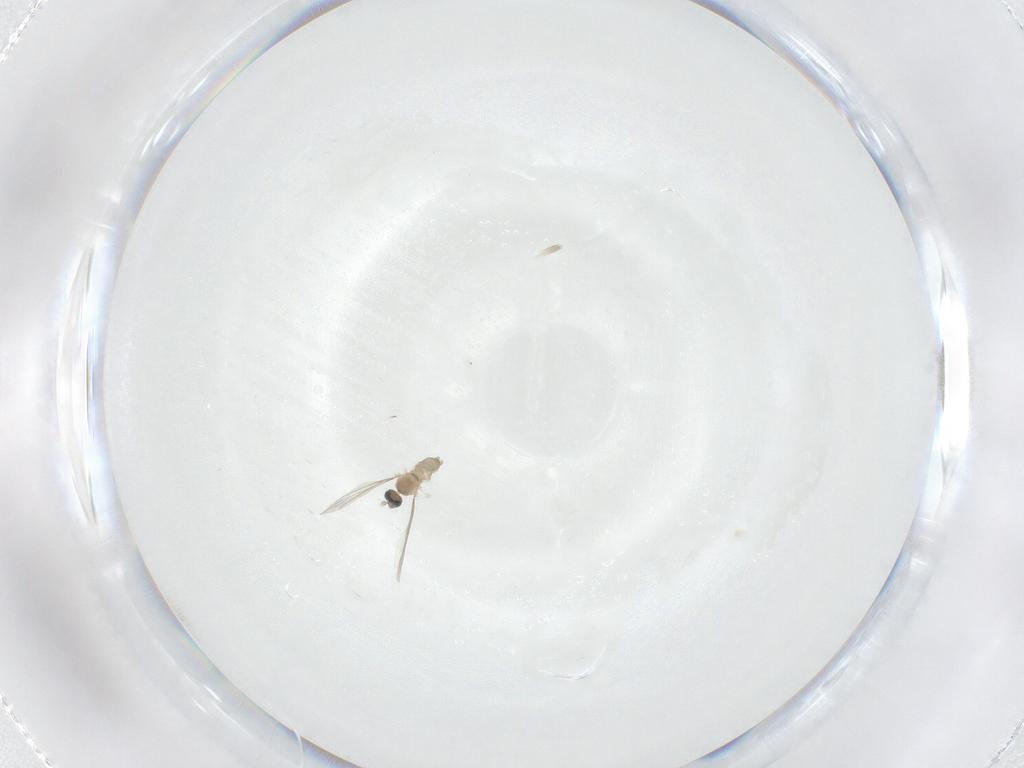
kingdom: Animalia
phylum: Arthropoda
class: Insecta
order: Diptera
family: Cecidomyiidae
